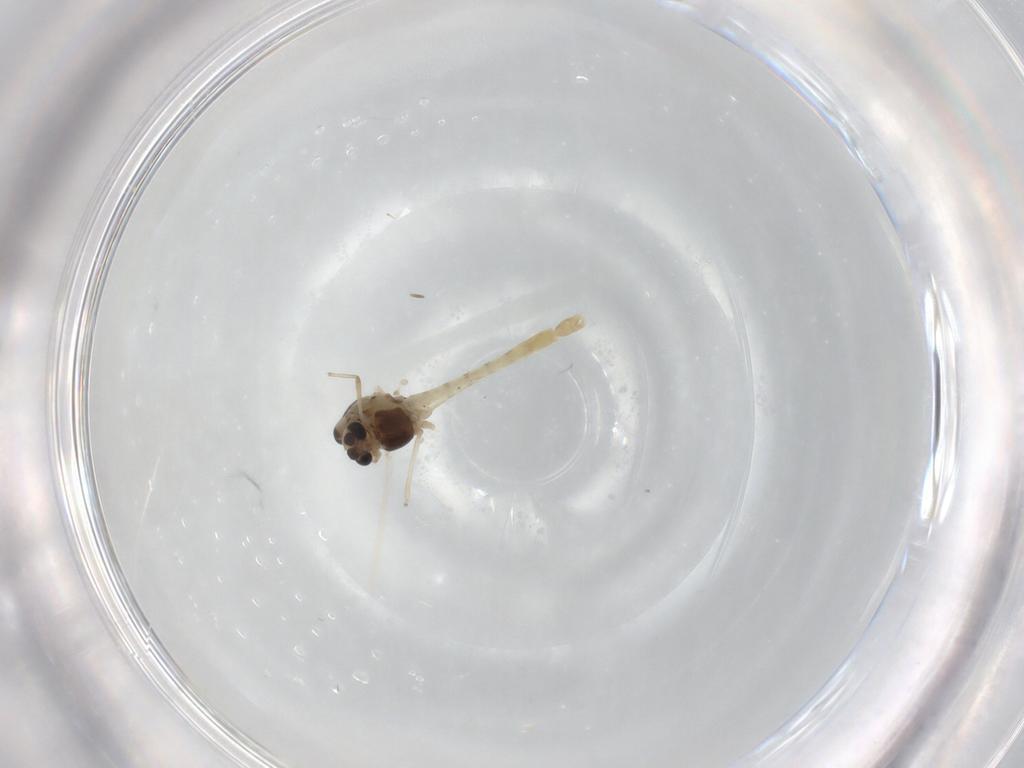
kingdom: Animalia
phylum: Arthropoda
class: Insecta
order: Diptera
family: Chironomidae
